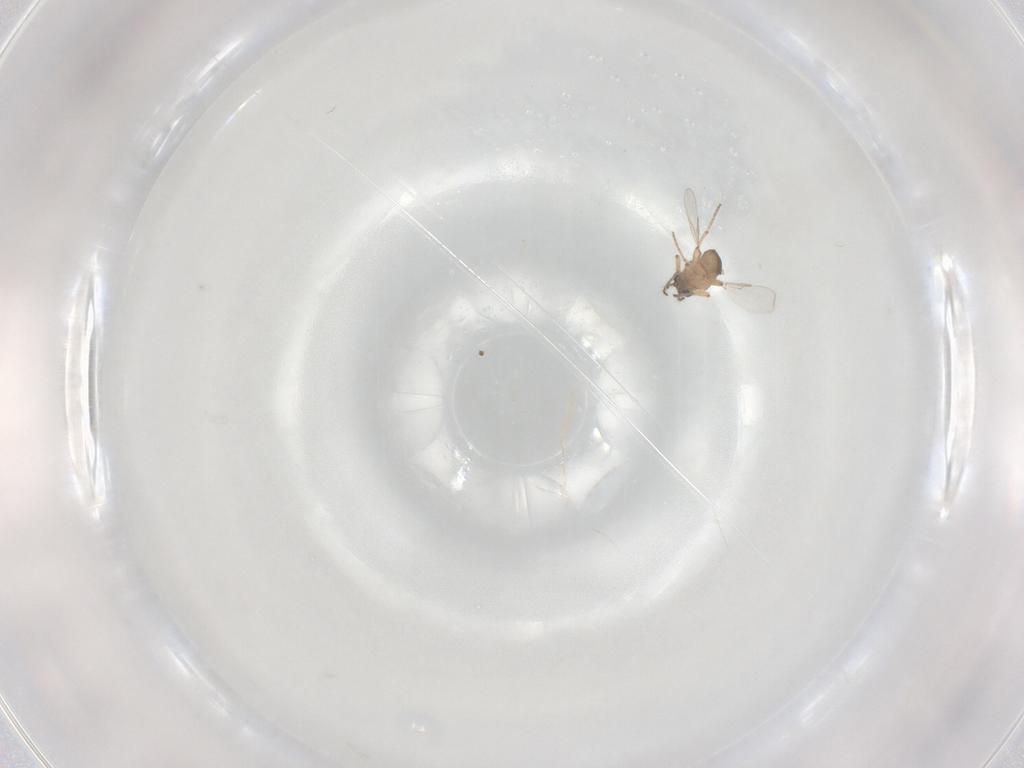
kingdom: Animalia
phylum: Arthropoda
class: Insecta
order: Diptera
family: Ceratopogonidae
